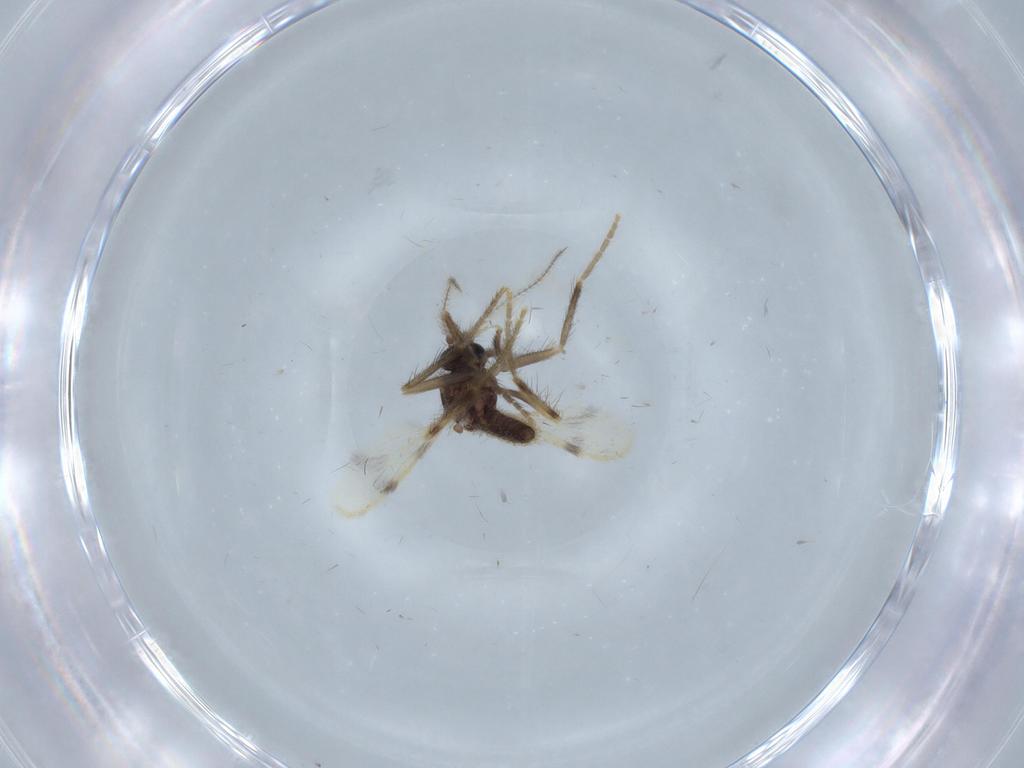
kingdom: Animalia
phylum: Arthropoda
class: Insecta
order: Diptera
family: Corethrellidae
